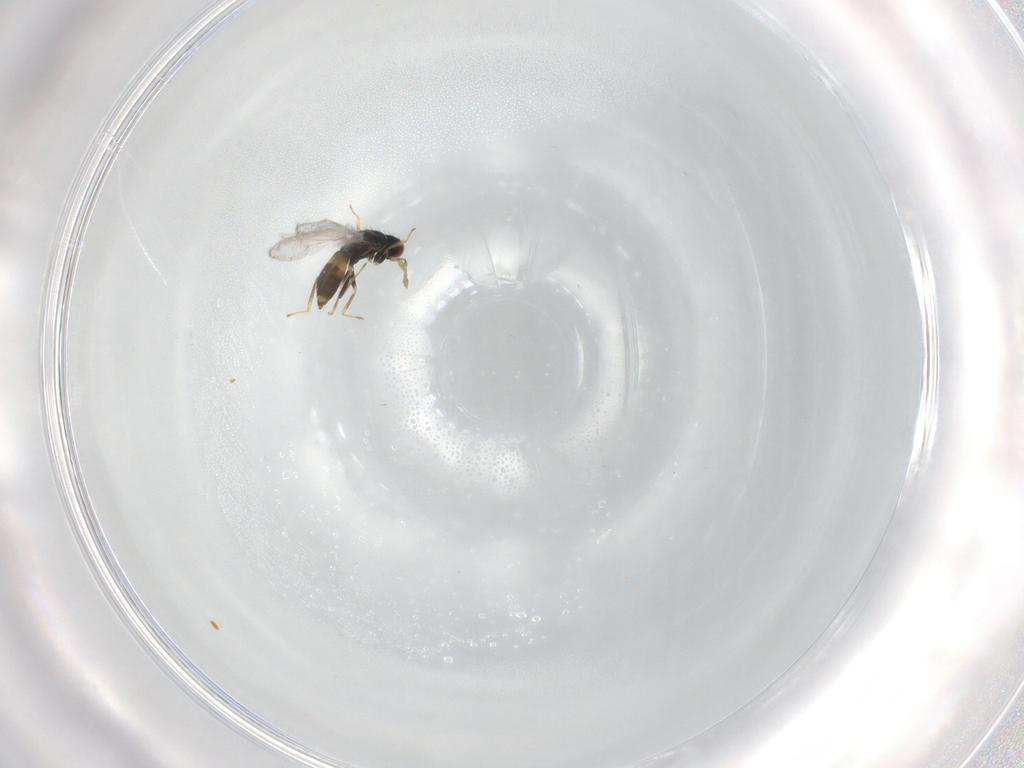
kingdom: Animalia
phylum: Arthropoda
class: Insecta
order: Hymenoptera
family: Eulophidae
